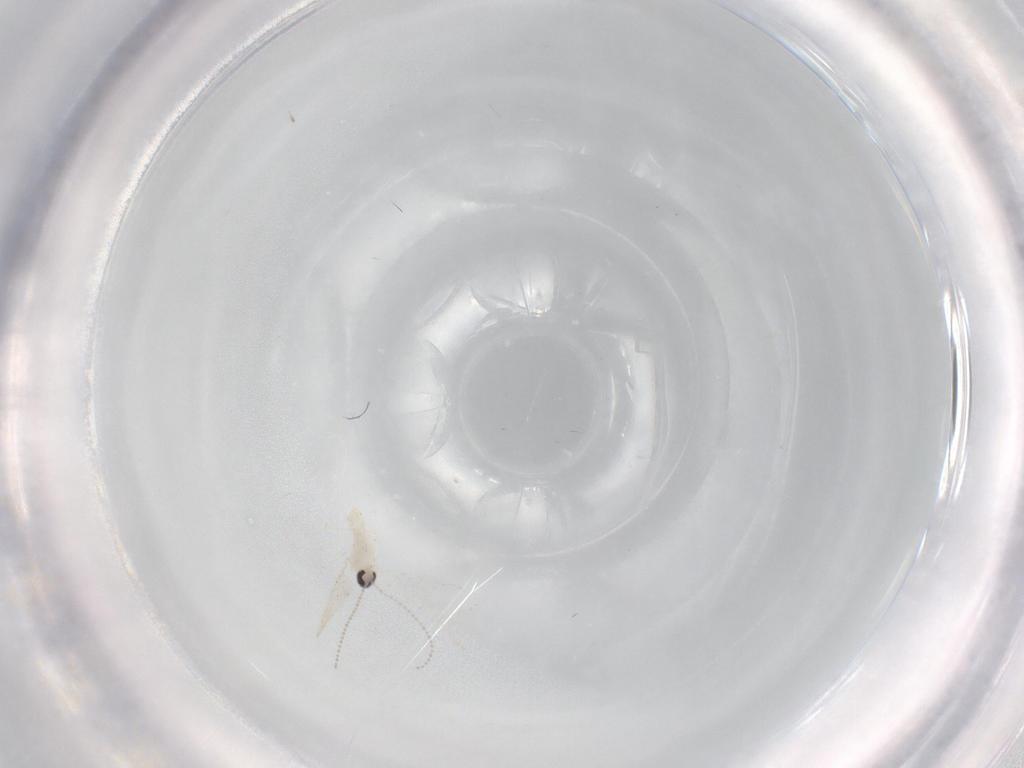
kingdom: Animalia
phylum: Arthropoda
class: Insecta
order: Diptera
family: Cecidomyiidae
